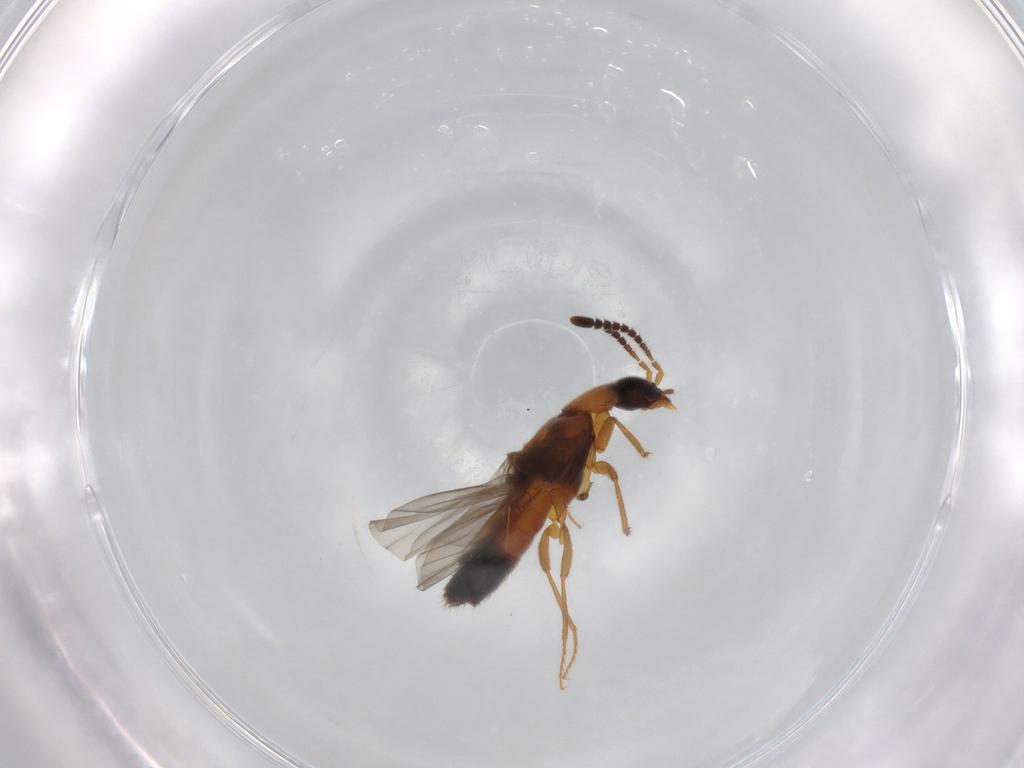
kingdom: Animalia
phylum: Arthropoda
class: Insecta
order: Coleoptera
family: Staphylinidae
